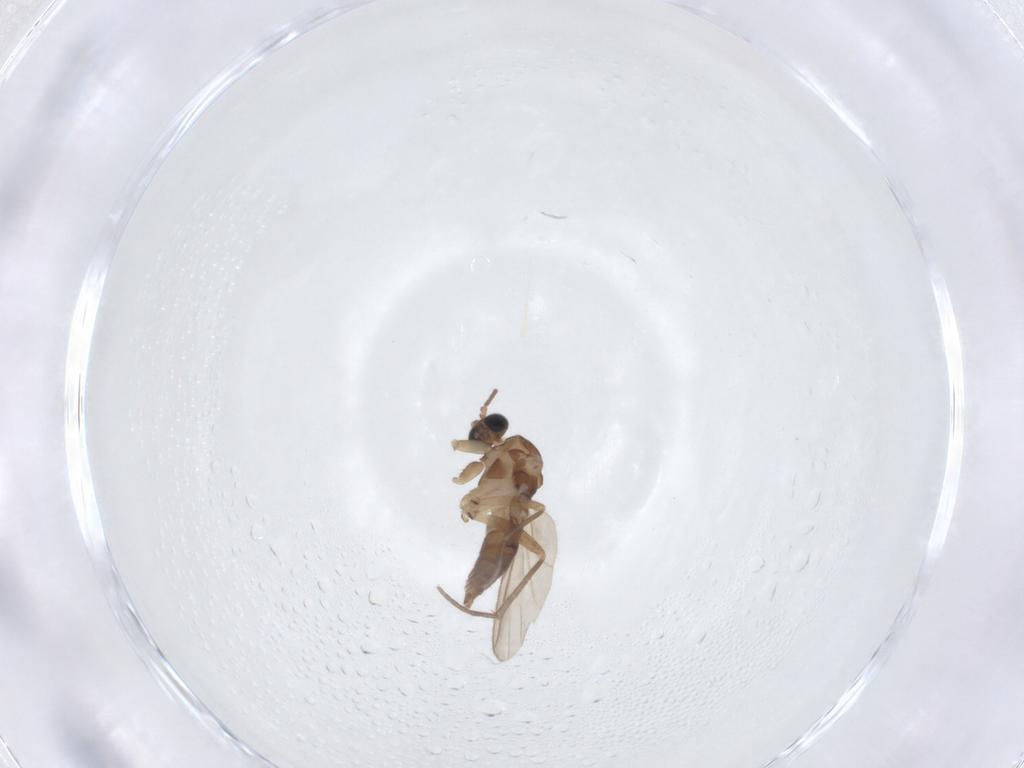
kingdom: Animalia
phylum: Arthropoda
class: Insecta
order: Diptera
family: Sciaridae
